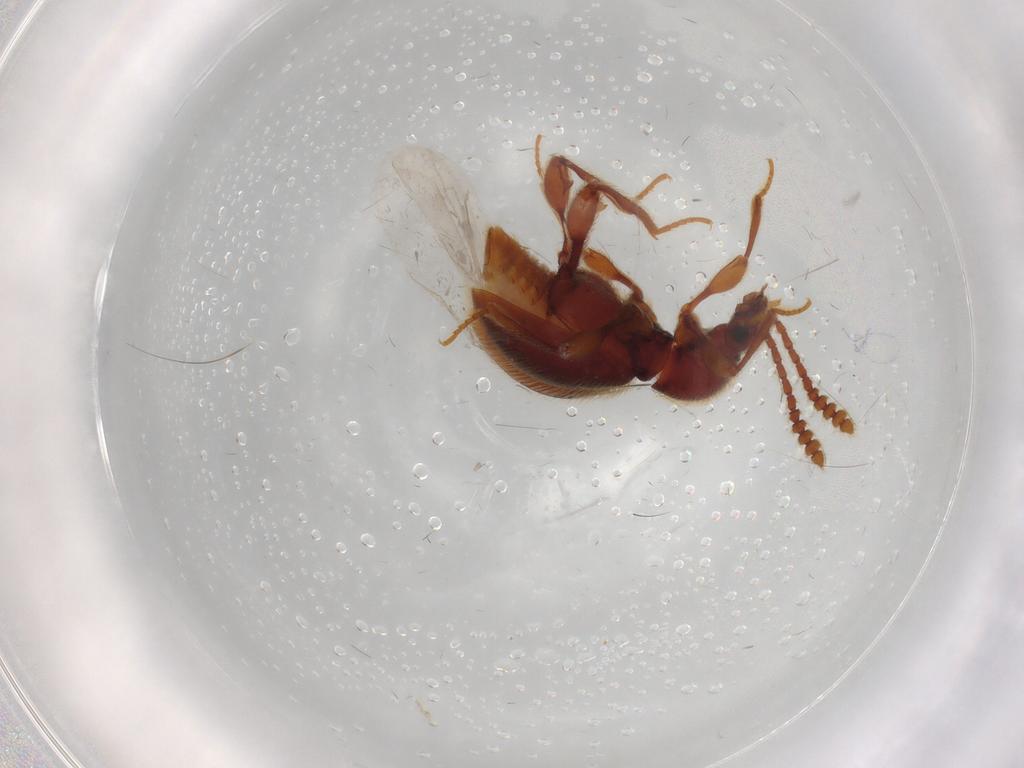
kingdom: Animalia
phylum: Arthropoda
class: Insecta
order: Coleoptera
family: Staphylinidae
